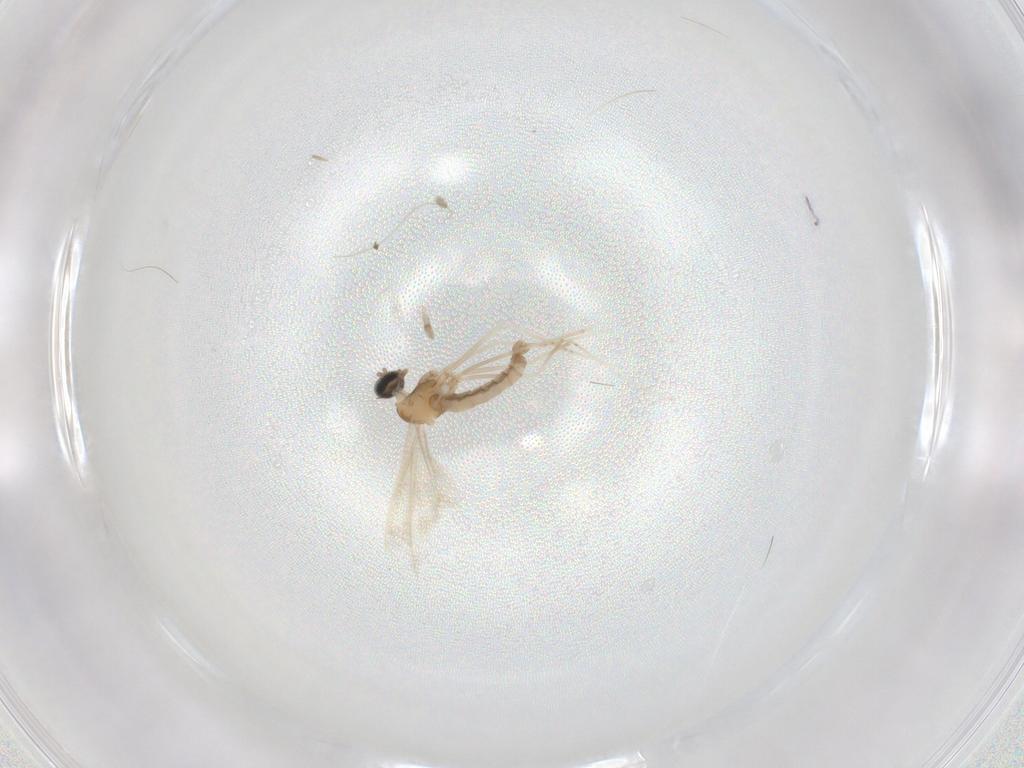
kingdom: Animalia
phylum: Arthropoda
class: Insecta
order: Diptera
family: Cecidomyiidae
